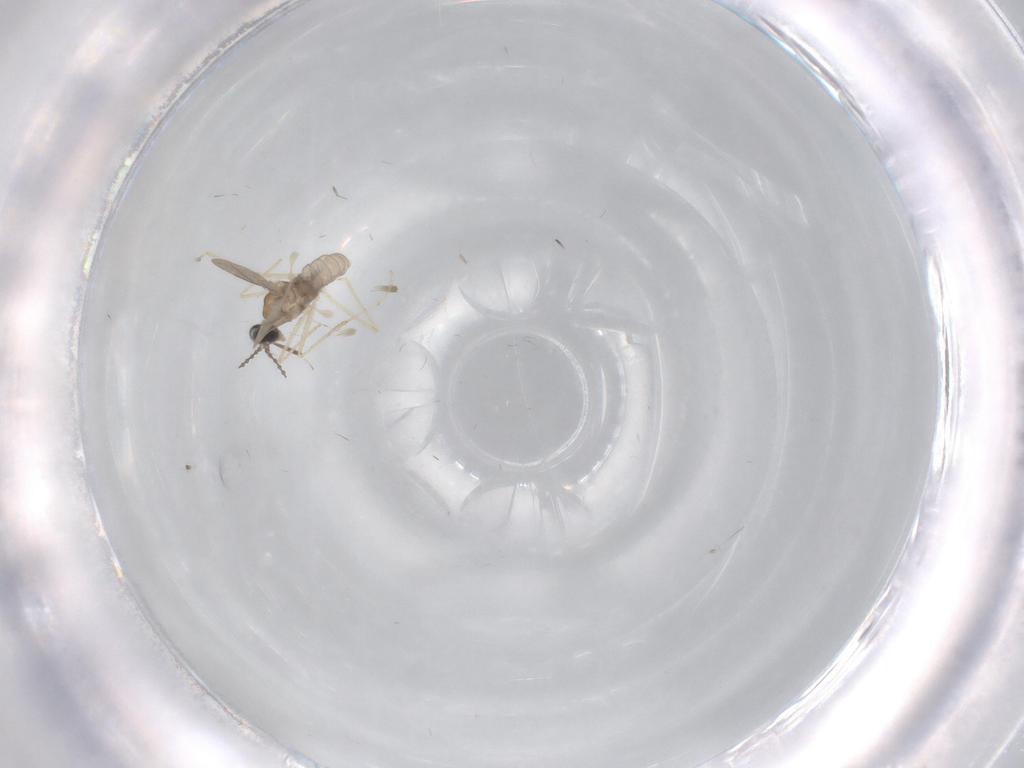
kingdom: Animalia
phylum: Arthropoda
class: Insecta
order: Diptera
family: Cecidomyiidae
